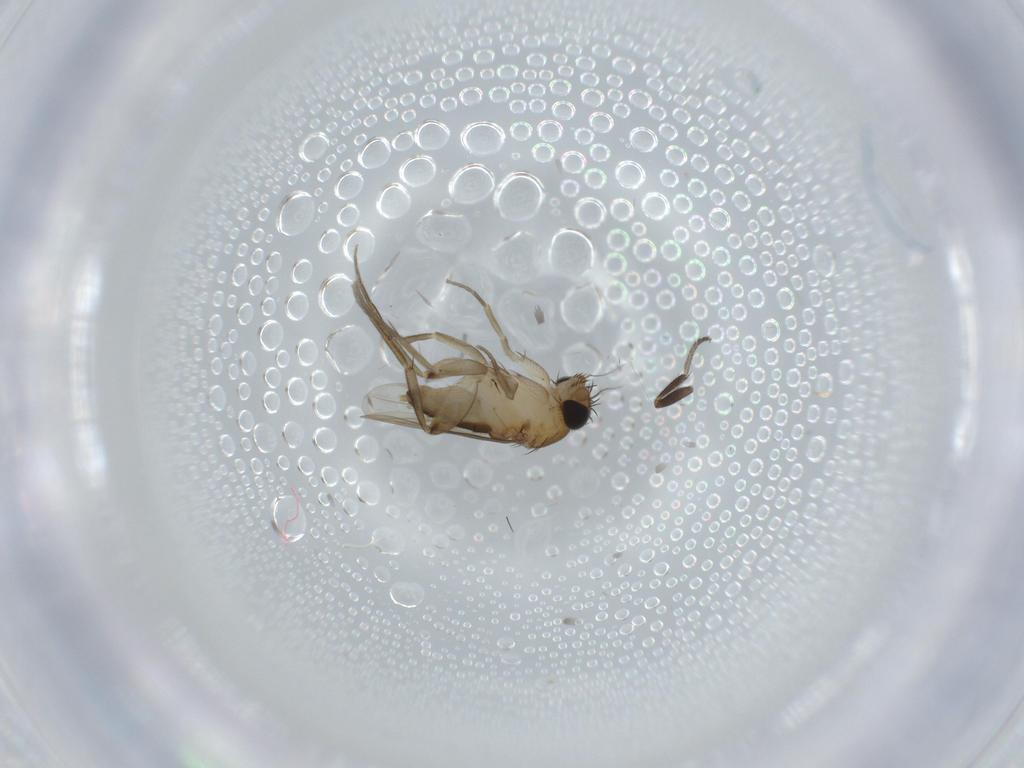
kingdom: Animalia
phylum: Arthropoda
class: Insecta
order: Diptera
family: Phoridae
